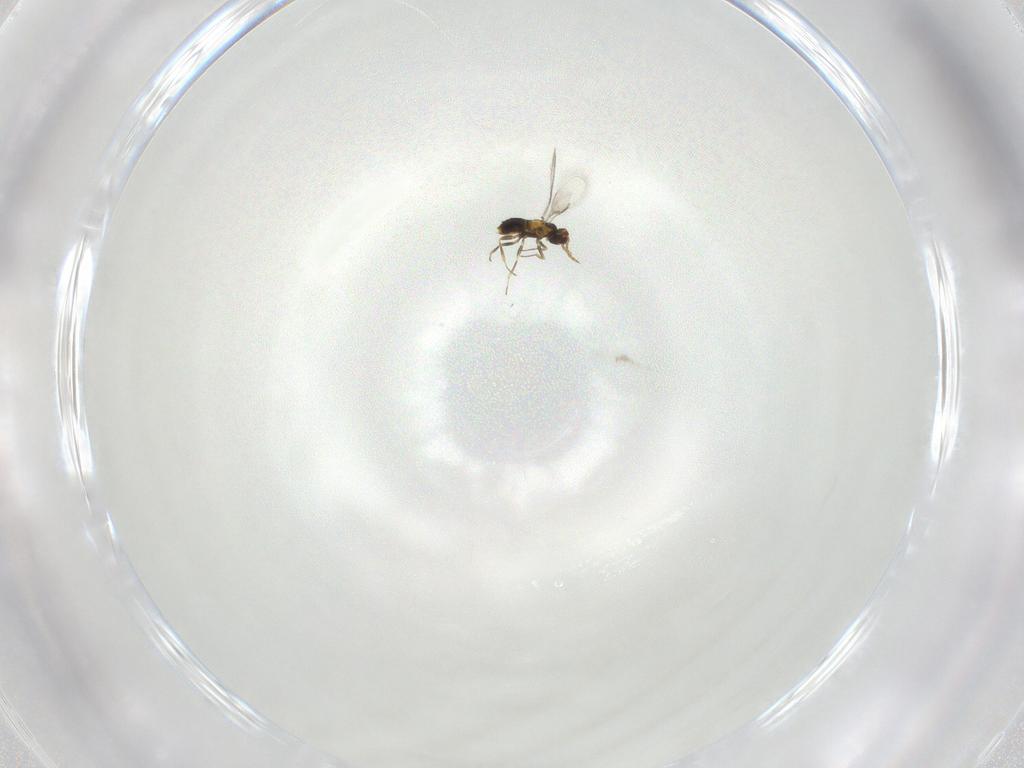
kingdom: Animalia
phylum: Arthropoda
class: Insecta
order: Hymenoptera
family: Aphelinidae
